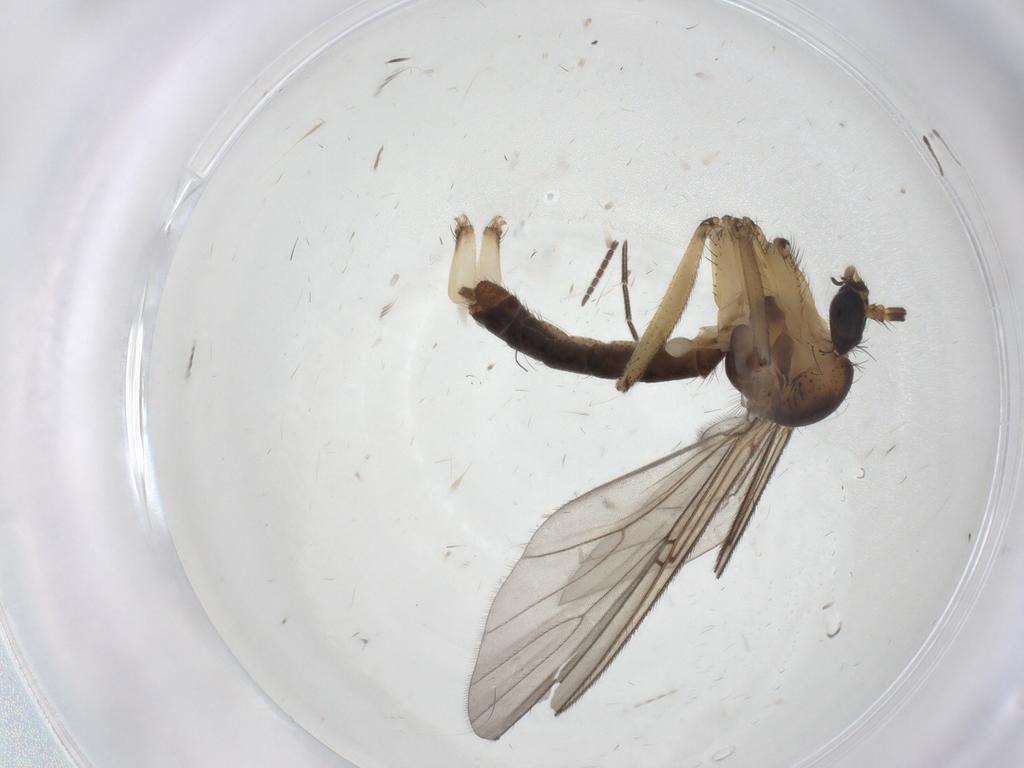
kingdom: Animalia
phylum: Arthropoda
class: Insecta
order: Diptera
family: Mycetophilidae
